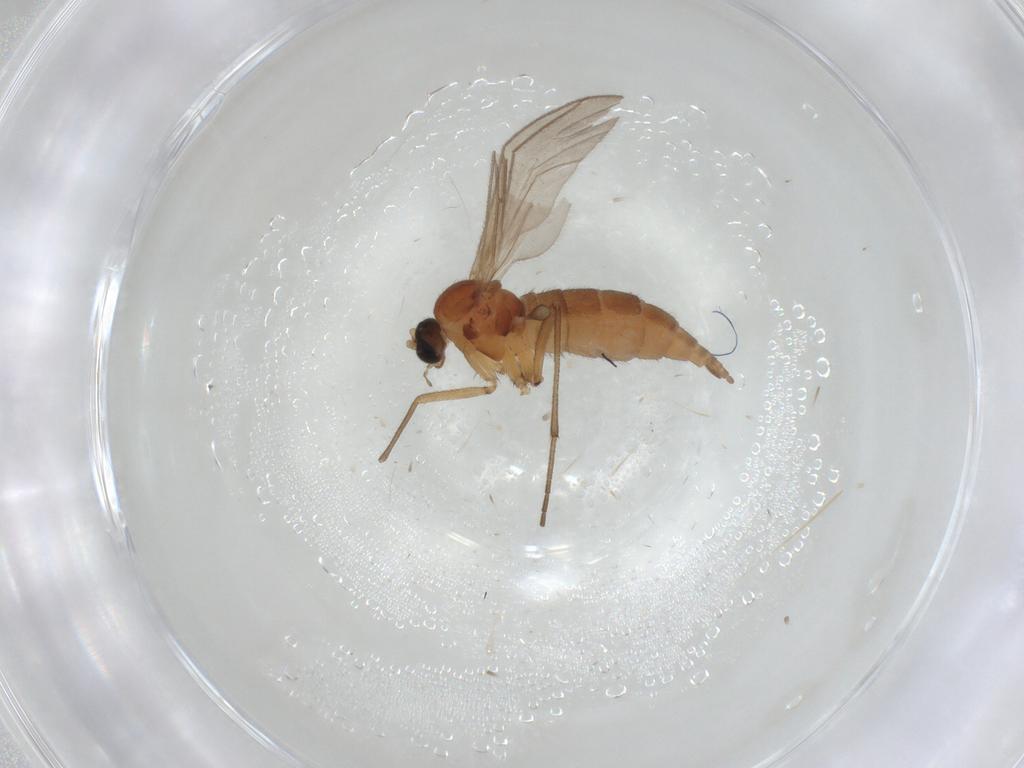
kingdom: Animalia
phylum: Arthropoda
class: Insecta
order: Diptera
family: Sciaridae
